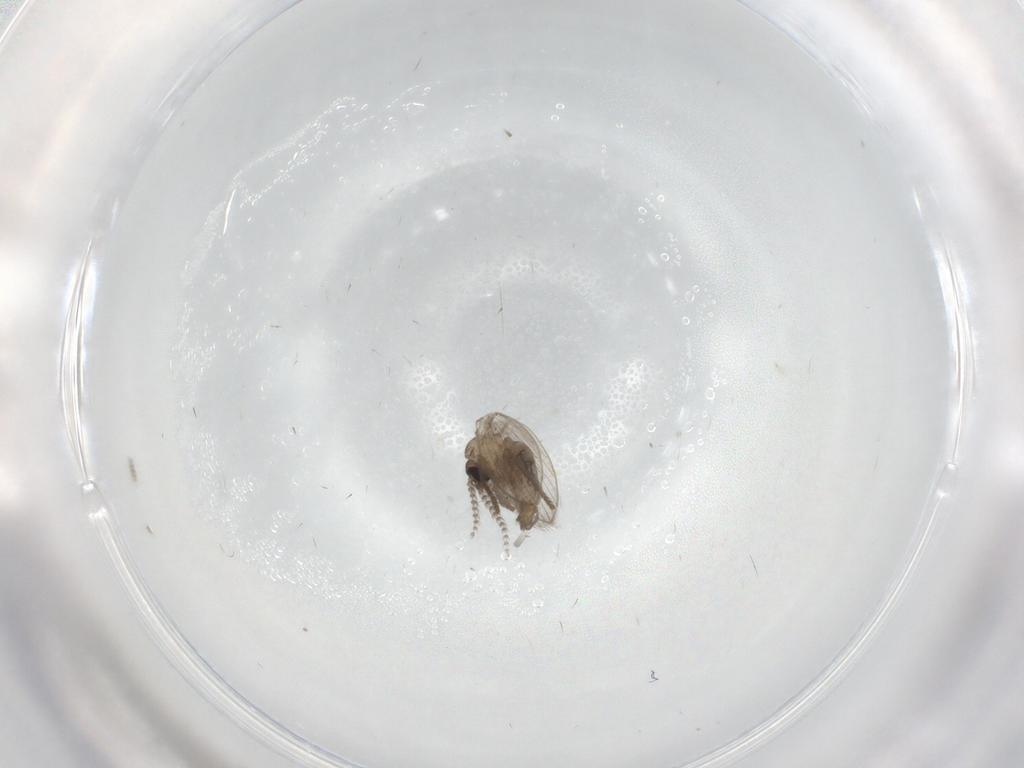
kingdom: Animalia
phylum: Arthropoda
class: Insecta
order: Diptera
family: Psychodidae
